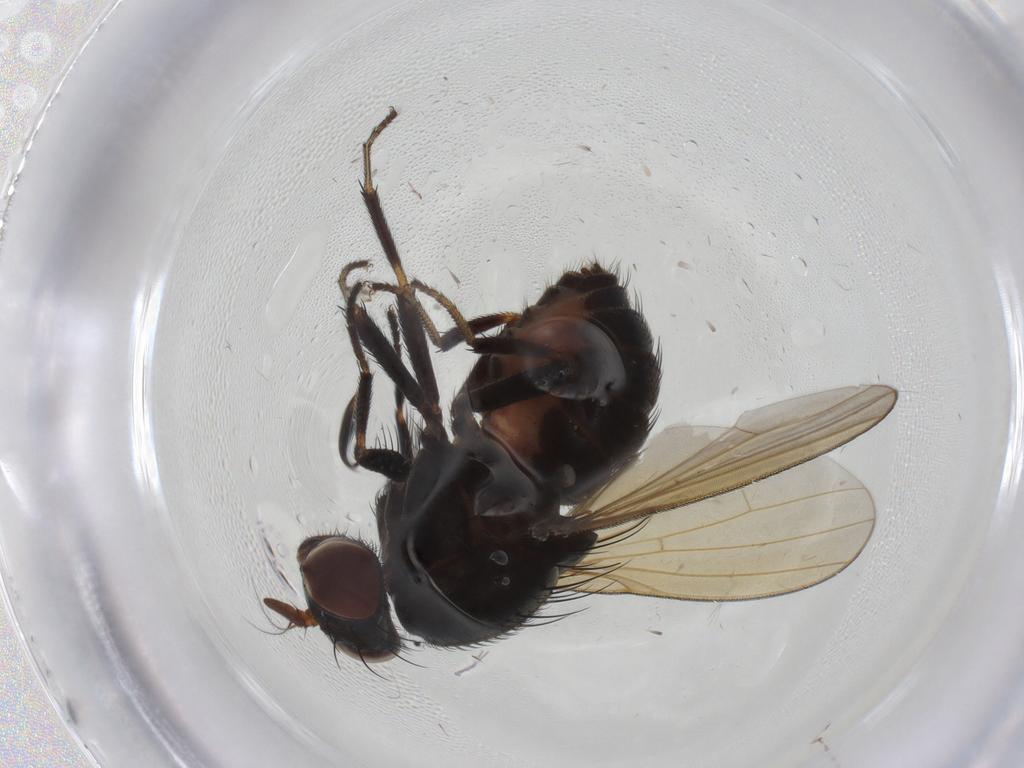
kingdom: Animalia
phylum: Arthropoda
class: Insecta
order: Diptera
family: Lauxaniidae
